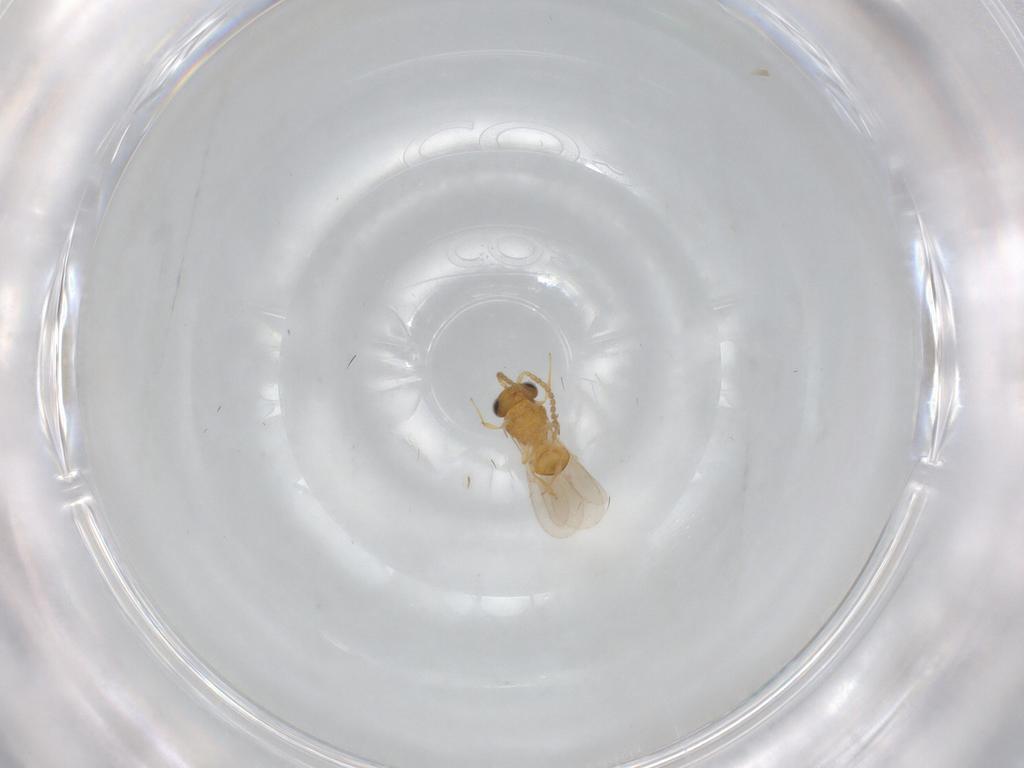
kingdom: Animalia
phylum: Arthropoda
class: Insecta
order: Hymenoptera
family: Scelionidae
